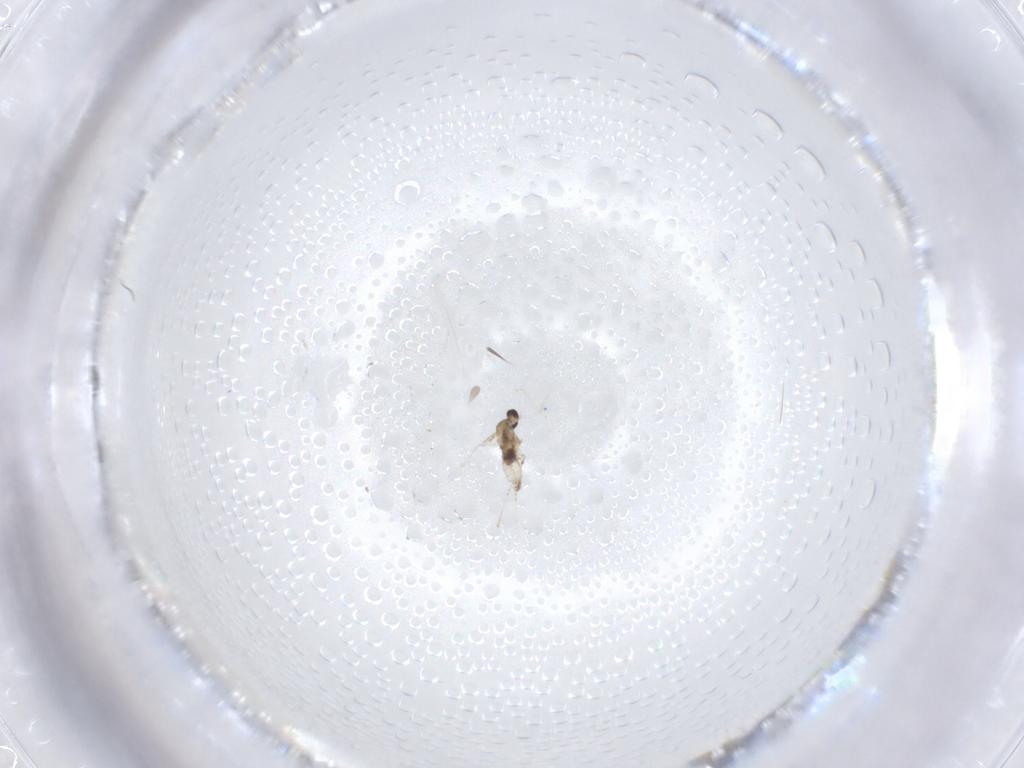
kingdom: Animalia
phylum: Arthropoda
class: Insecta
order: Diptera
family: Cecidomyiidae
